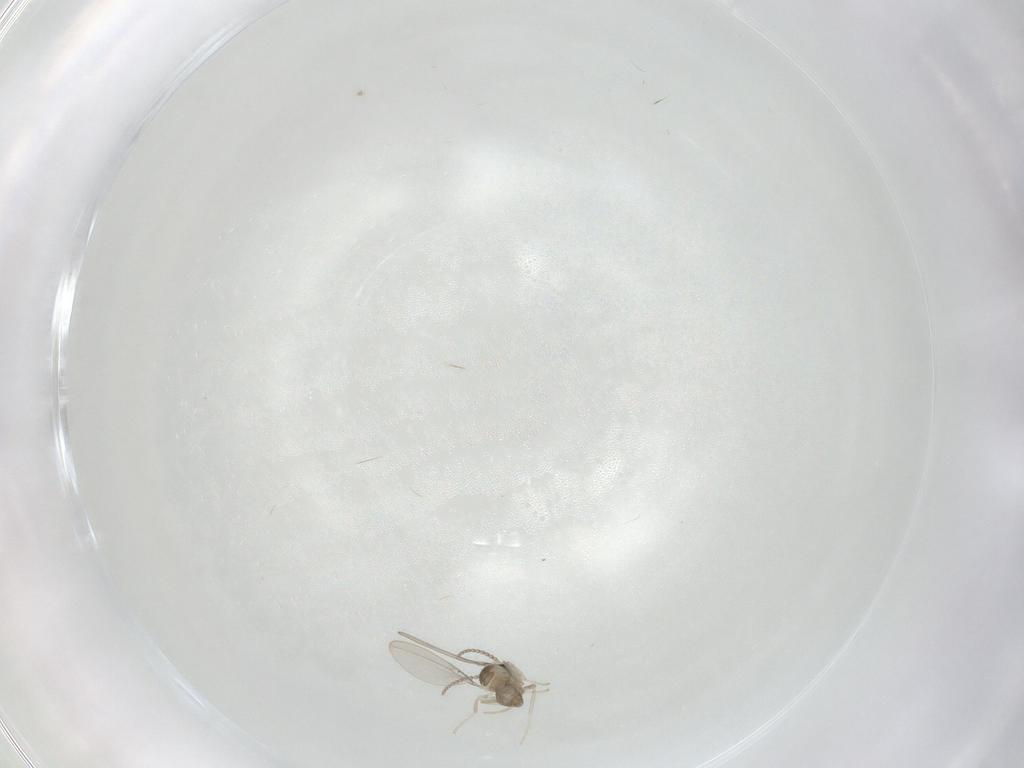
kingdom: Animalia
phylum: Arthropoda
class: Insecta
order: Diptera
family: Cecidomyiidae
